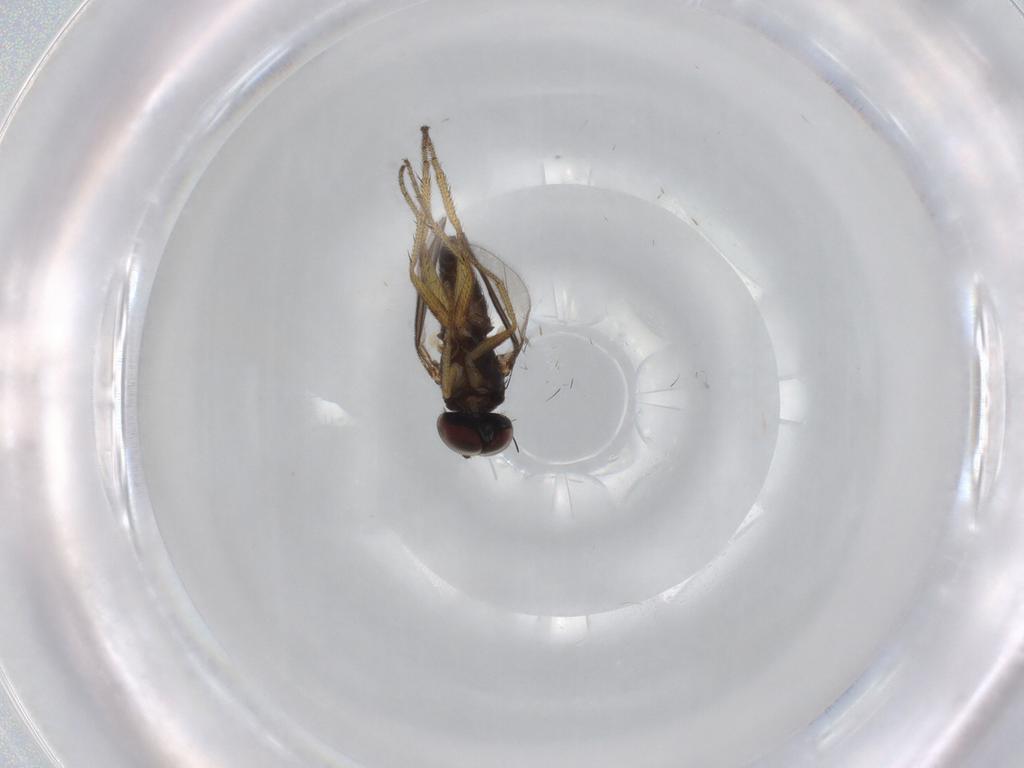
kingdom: Animalia
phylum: Arthropoda
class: Insecta
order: Diptera
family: Dolichopodidae
